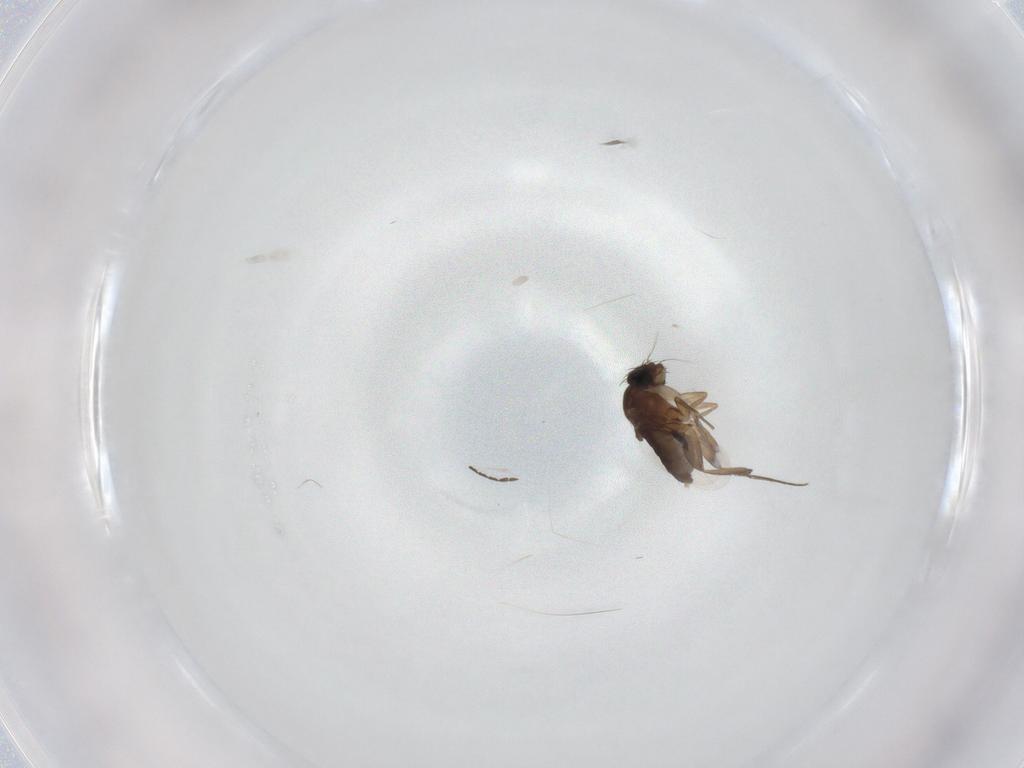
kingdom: Animalia
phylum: Arthropoda
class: Insecta
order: Diptera
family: Phoridae
